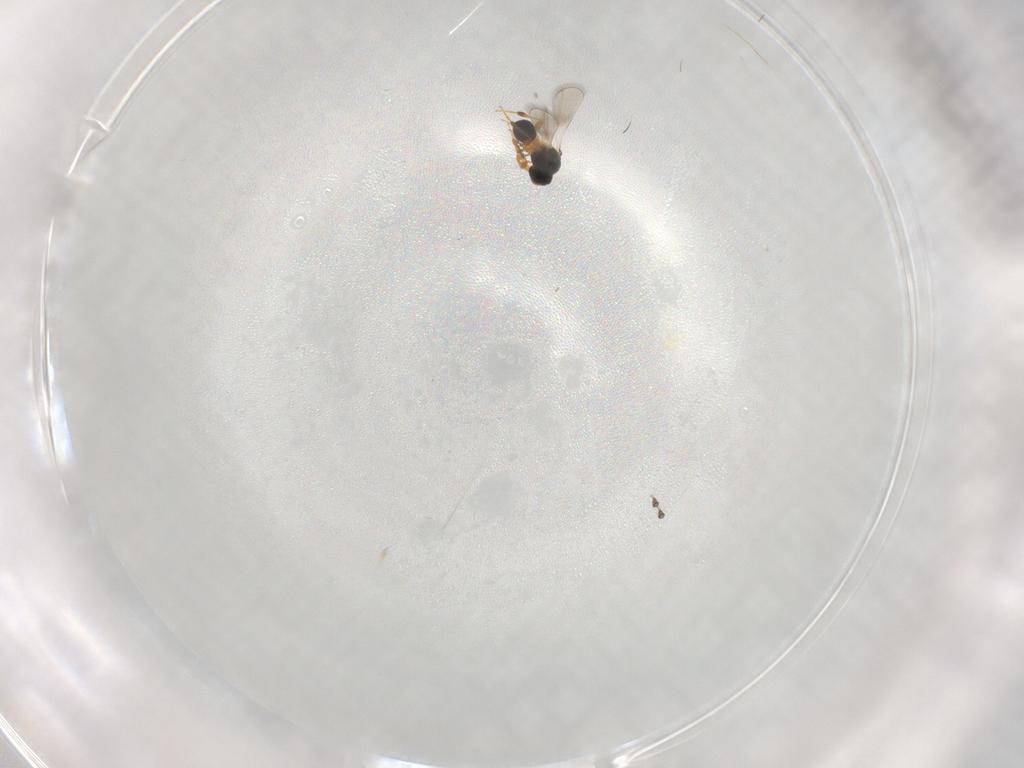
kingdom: Animalia
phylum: Arthropoda
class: Insecta
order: Hymenoptera
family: Platygastridae
